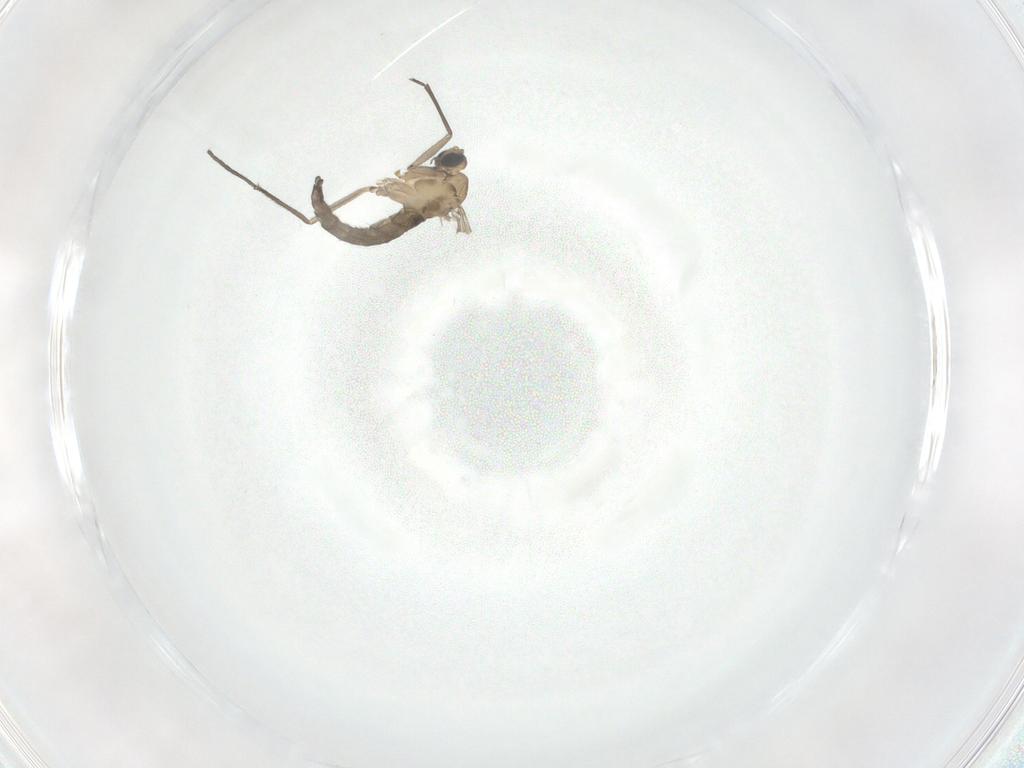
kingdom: Animalia
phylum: Arthropoda
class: Insecta
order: Diptera
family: Sciaridae
